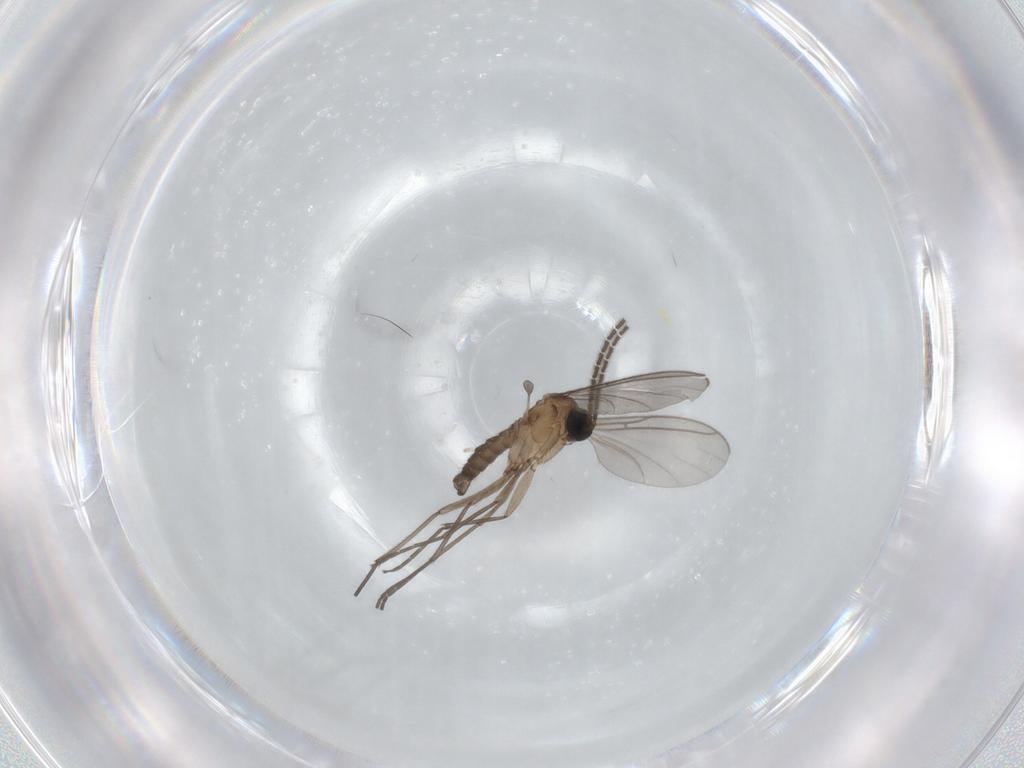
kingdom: Animalia
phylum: Arthropoda
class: Insecta
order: Diptera
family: Sciaridae
